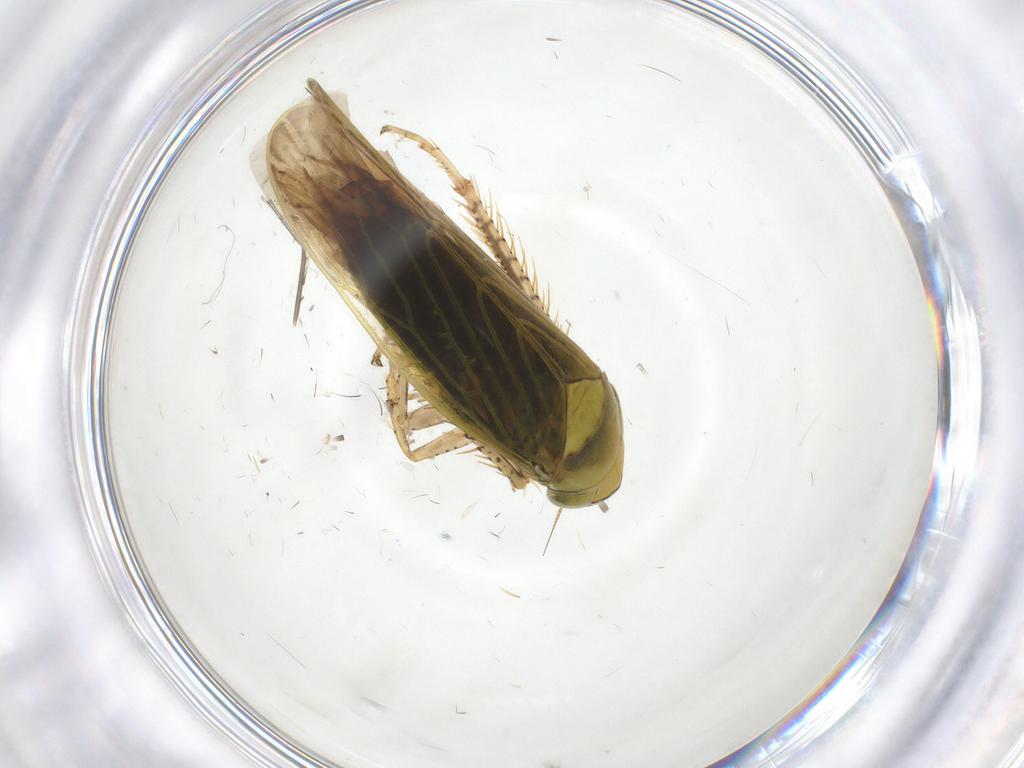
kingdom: Animalia
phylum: Arthropoda
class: Insecta
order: Hemiptera
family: Cicadellidae
